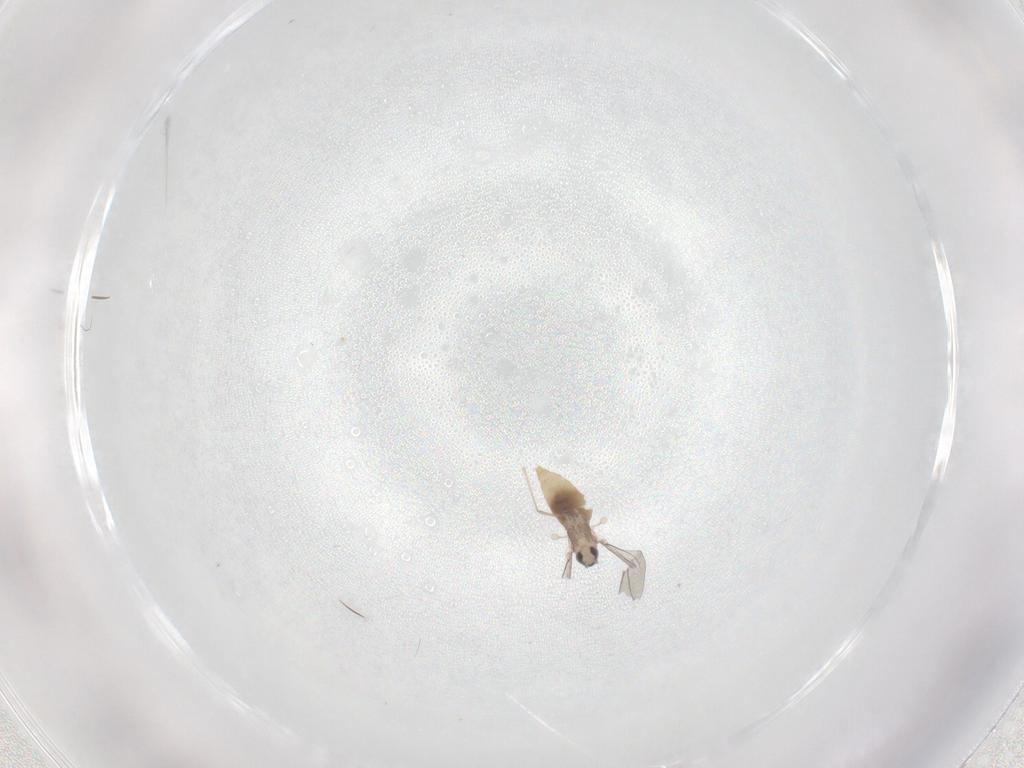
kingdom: Animalia
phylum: Arthropoda
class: Insecta
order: Diptera
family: Cecidomyiidae
